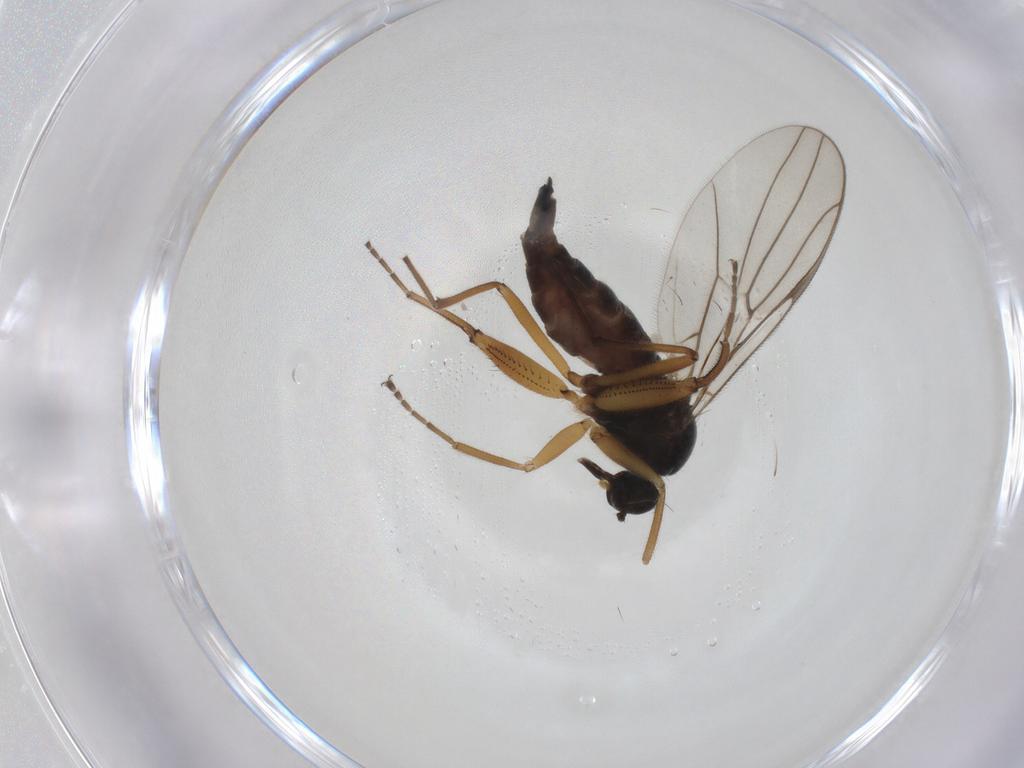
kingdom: Animalia
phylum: Arthropoda
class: Insecta
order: Diptera
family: Hybotidae
